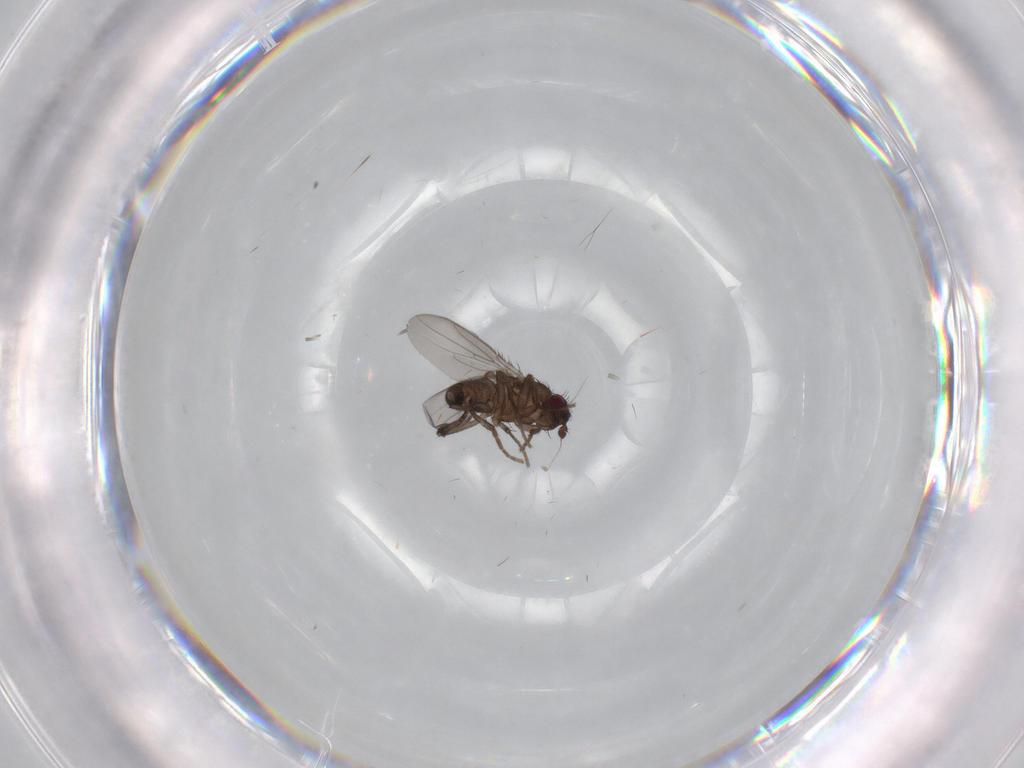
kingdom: Animalia
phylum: Arthropoda
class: Insecta
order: Diptera
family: Sphaeroceridae
